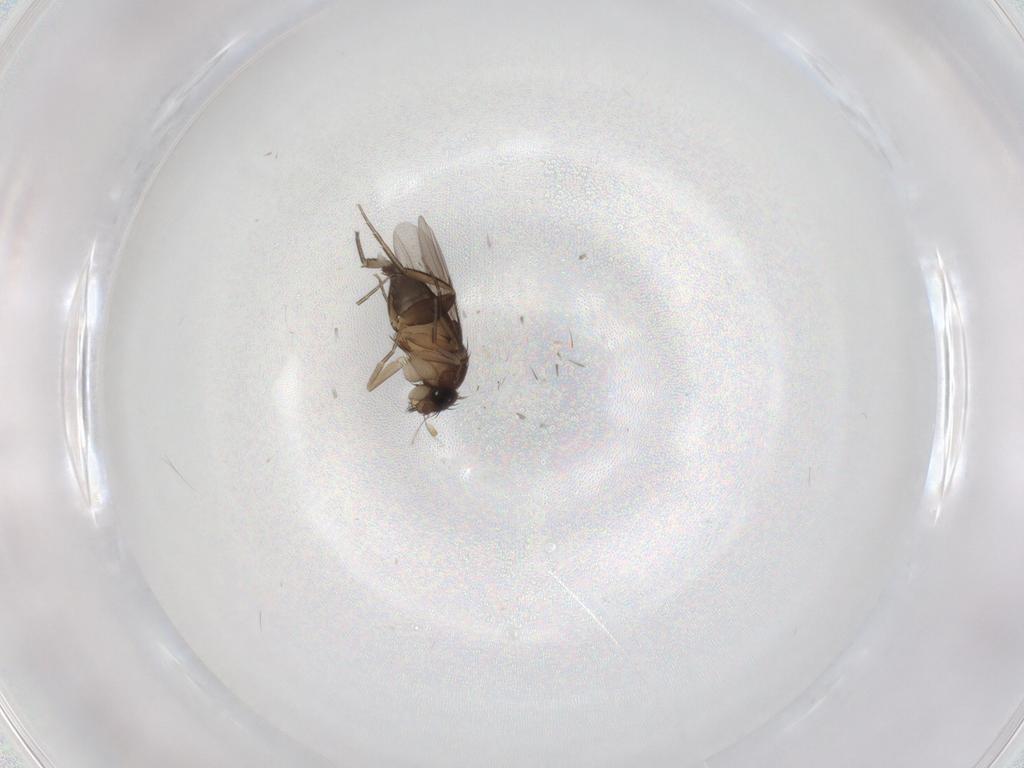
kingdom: Animalia
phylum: Arthropoda
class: Insecta
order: Diptera
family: Phoridae
